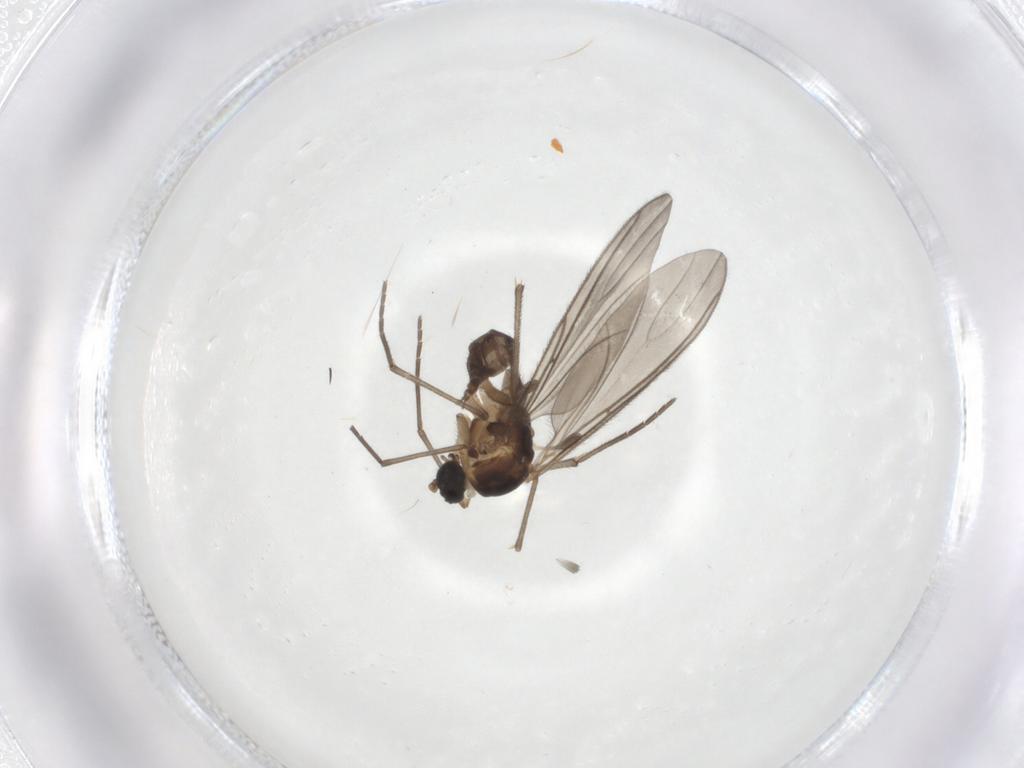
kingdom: Animalia
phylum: Arthropoda
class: Insecta
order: Diptera
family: Sciaridae
